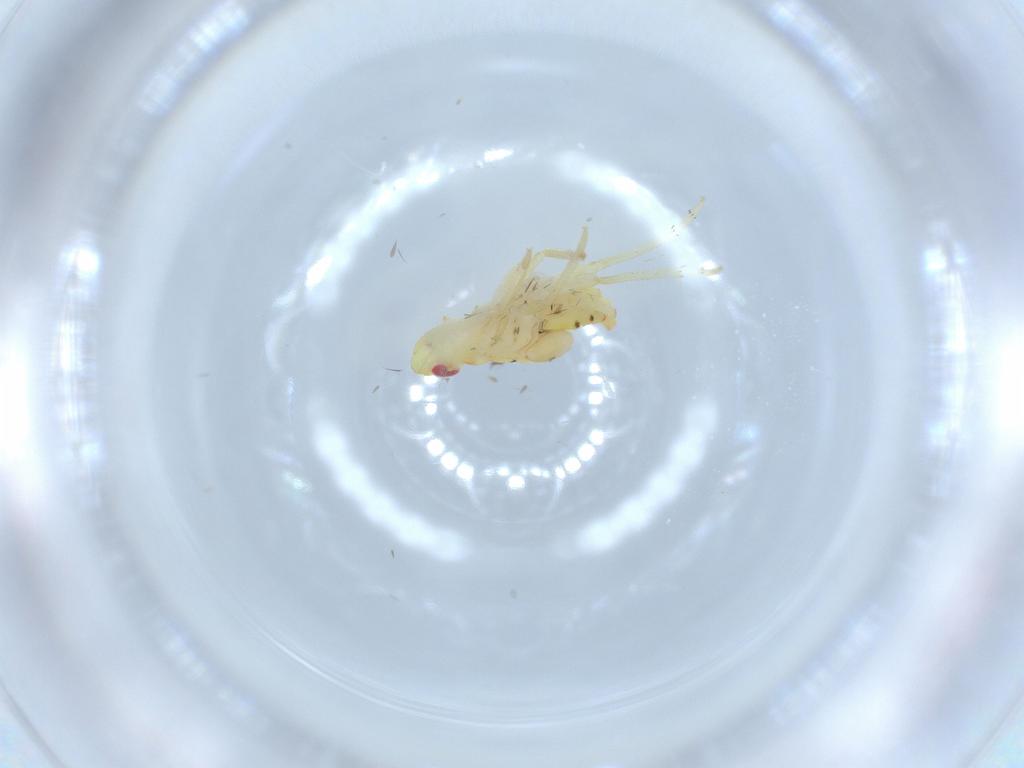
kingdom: Animalia
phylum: Arthropoda
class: Insecta
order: Hemiptera
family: Tropiduchidae
